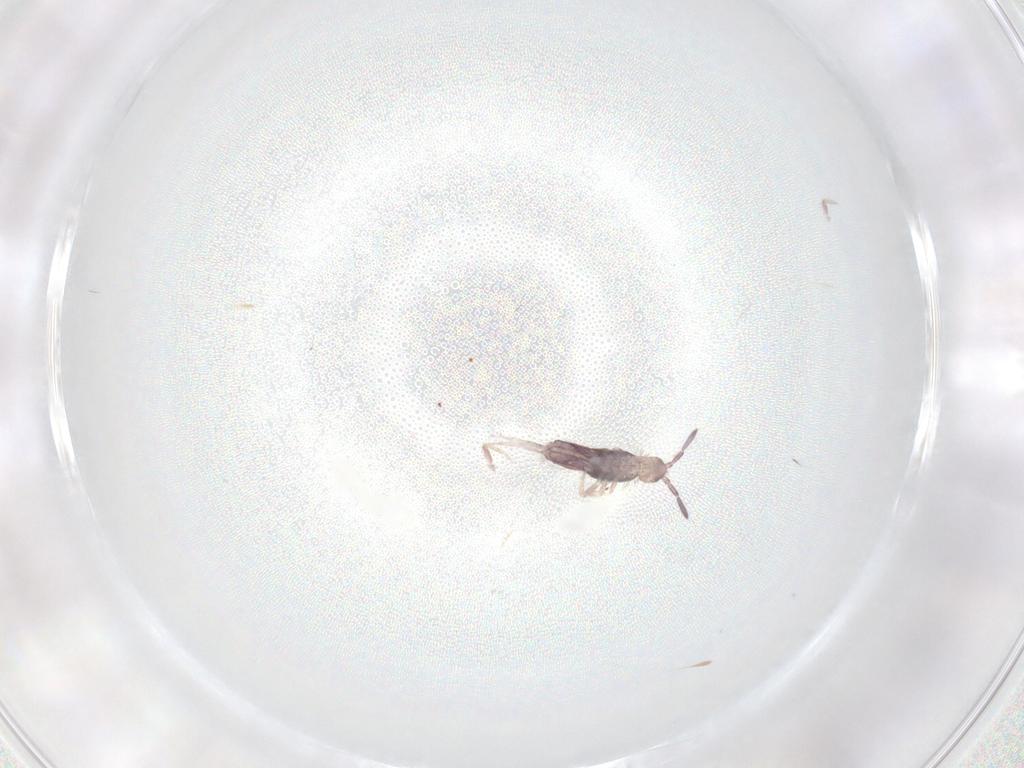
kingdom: Animalia
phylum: Arthropoda
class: Collembola
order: Entomobryomorpha
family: Entomobryidae
